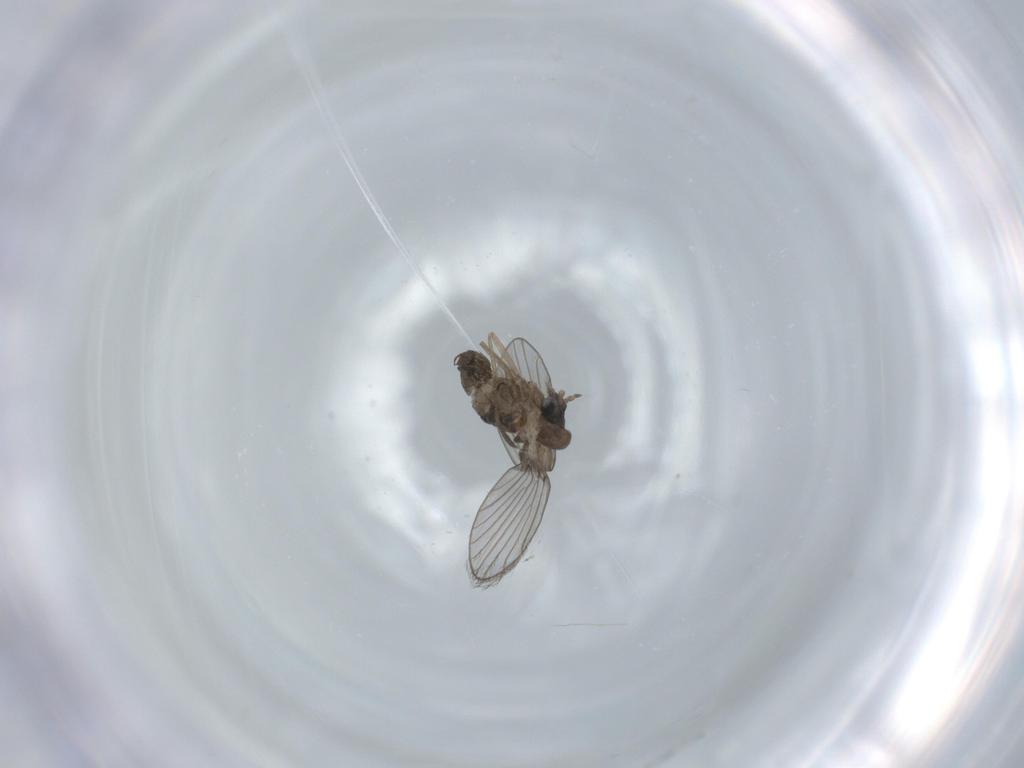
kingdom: Animalia
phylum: Arthropoda
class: Insecta
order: Diptera
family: Psychodidae
